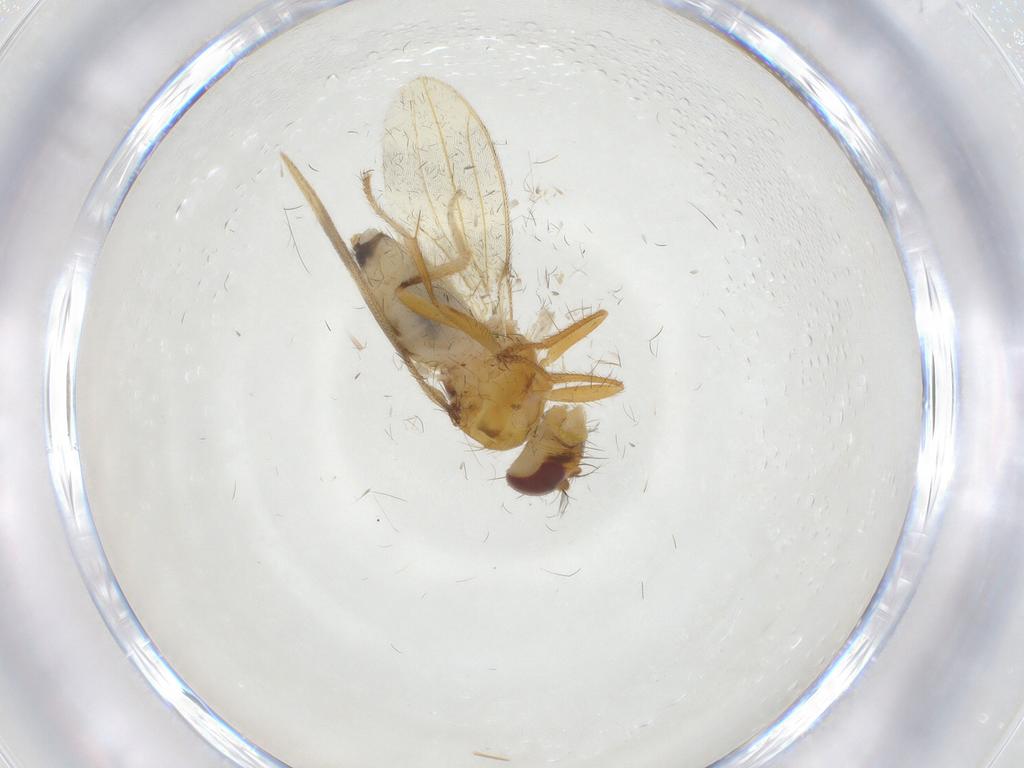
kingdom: Animalia
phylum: Arthropoda
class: Insecta
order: Diptera
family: Periscelididae
